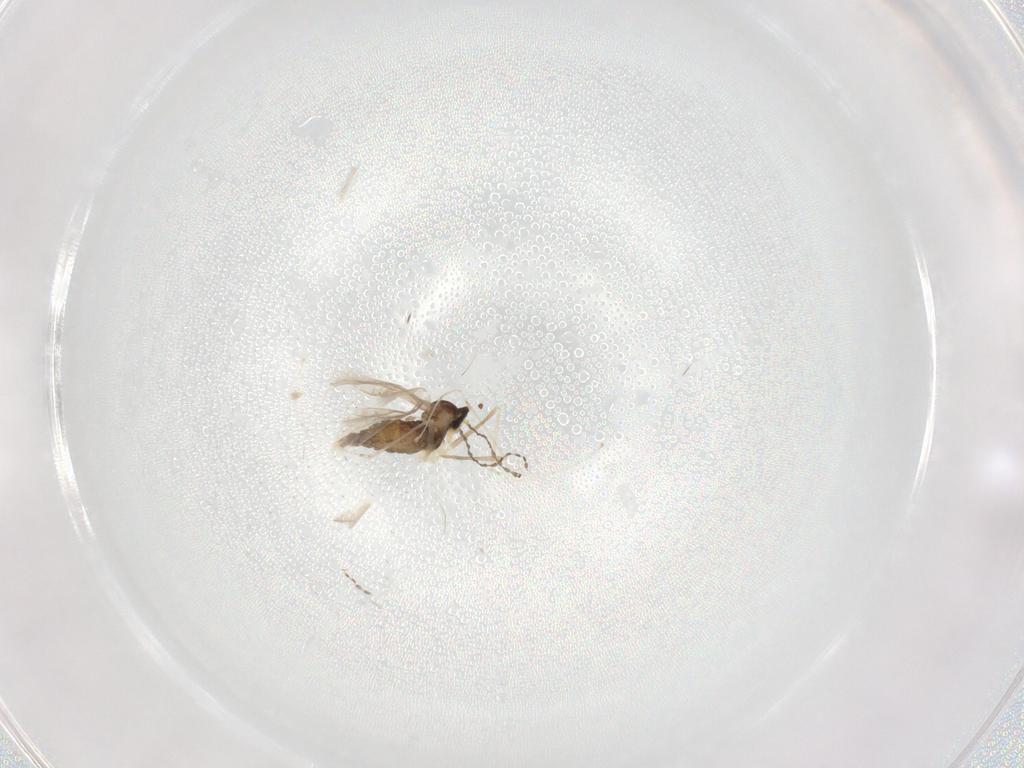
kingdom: Animalia
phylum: Arthropoda
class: Insecta
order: Diptera
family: Cecidomyiidae
